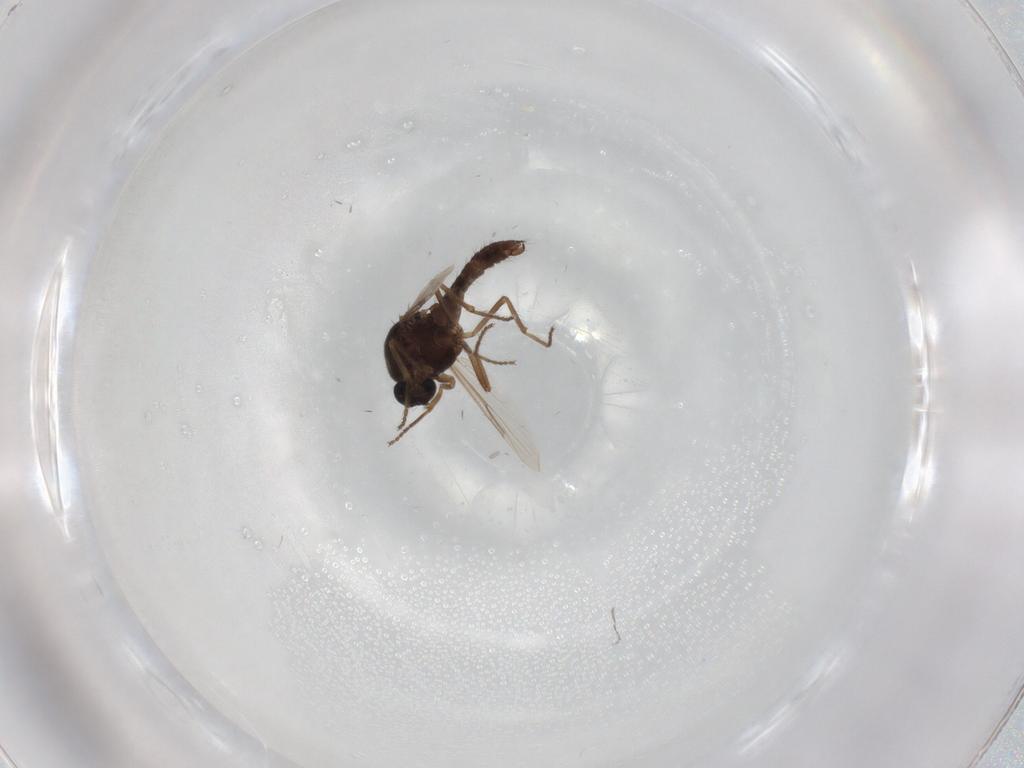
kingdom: Animalia
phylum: Arthropoda
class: Insecta
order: Diptera
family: Ceratopogonidae
